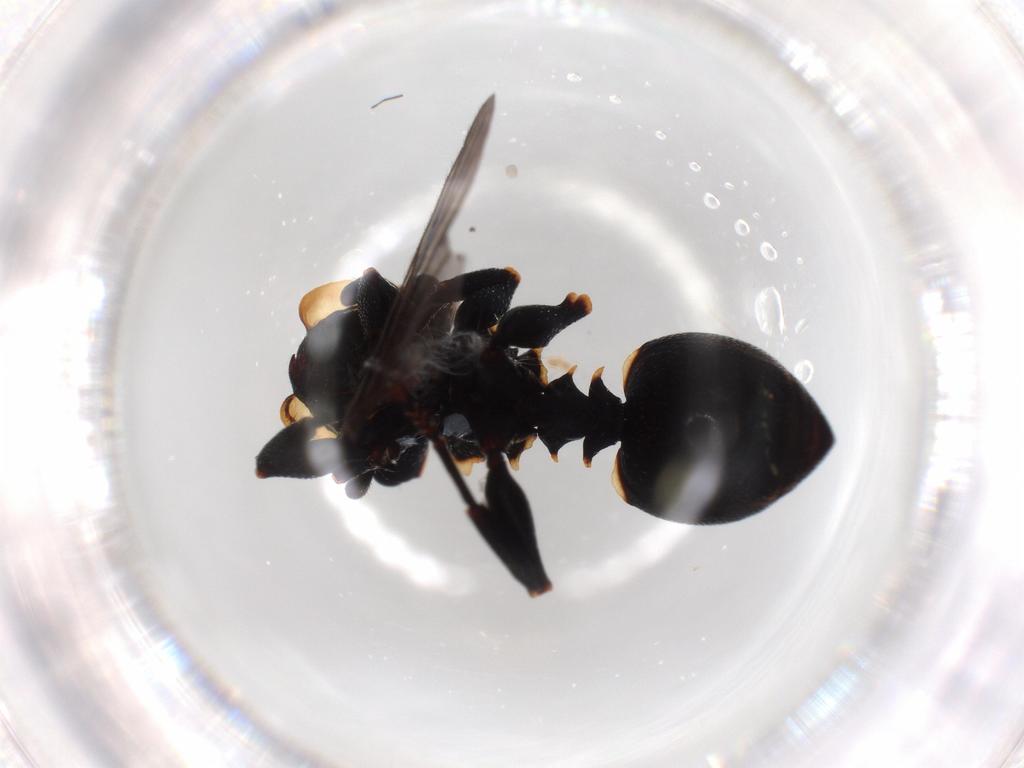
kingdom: Animalia
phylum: Arthropoda
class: Insecta
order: Hymenoptera
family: Formicidae
